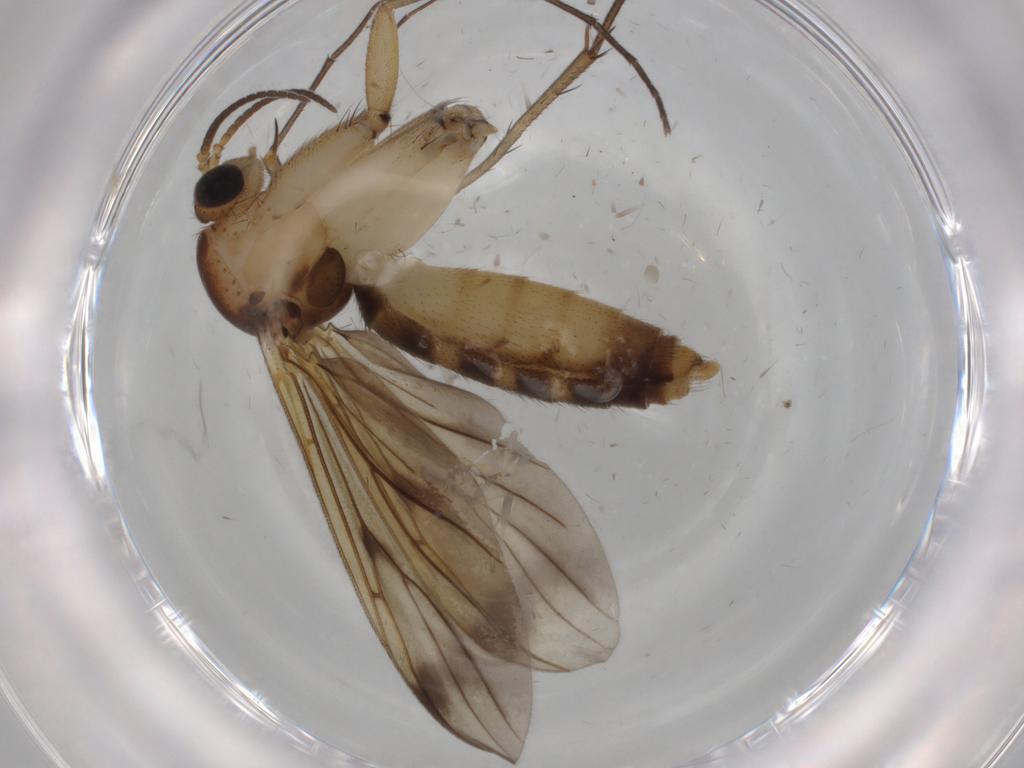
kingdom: Animalia
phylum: Arthropoda
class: Insecta
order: Diptera
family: Mycetophilidae
